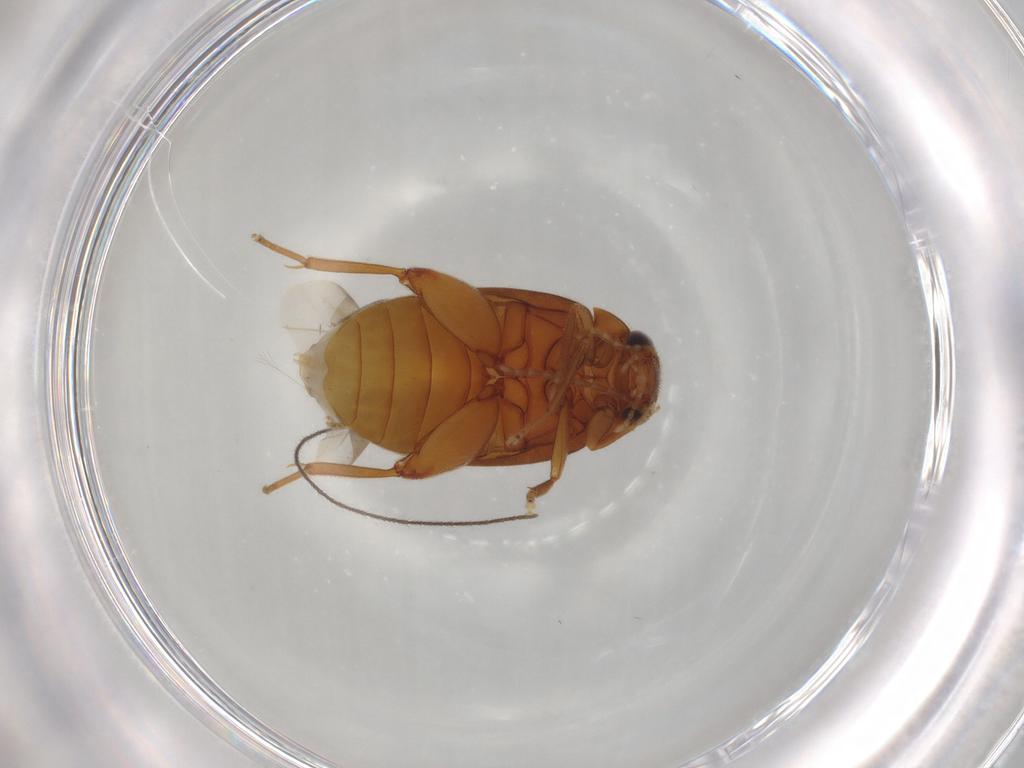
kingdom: Animalia
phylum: Arthropoda
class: Insecta
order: Coleoptera
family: Scirtidae
